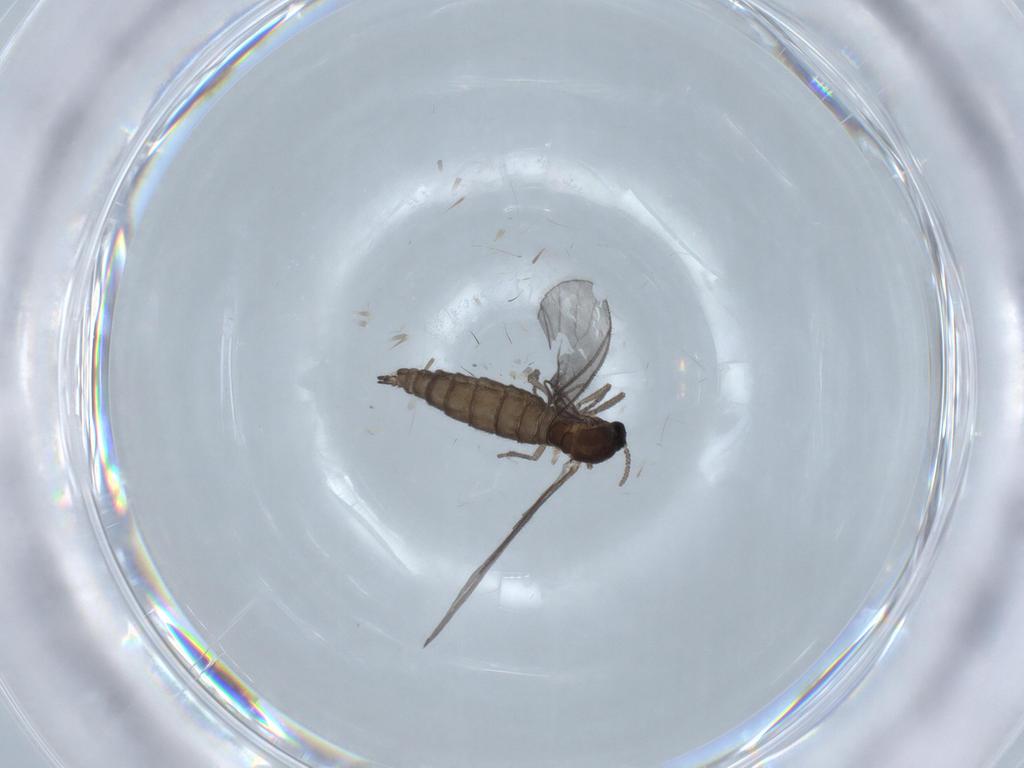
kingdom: Animalia
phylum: Arthropoda
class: Insecta
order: Diptera
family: Sciaridae
